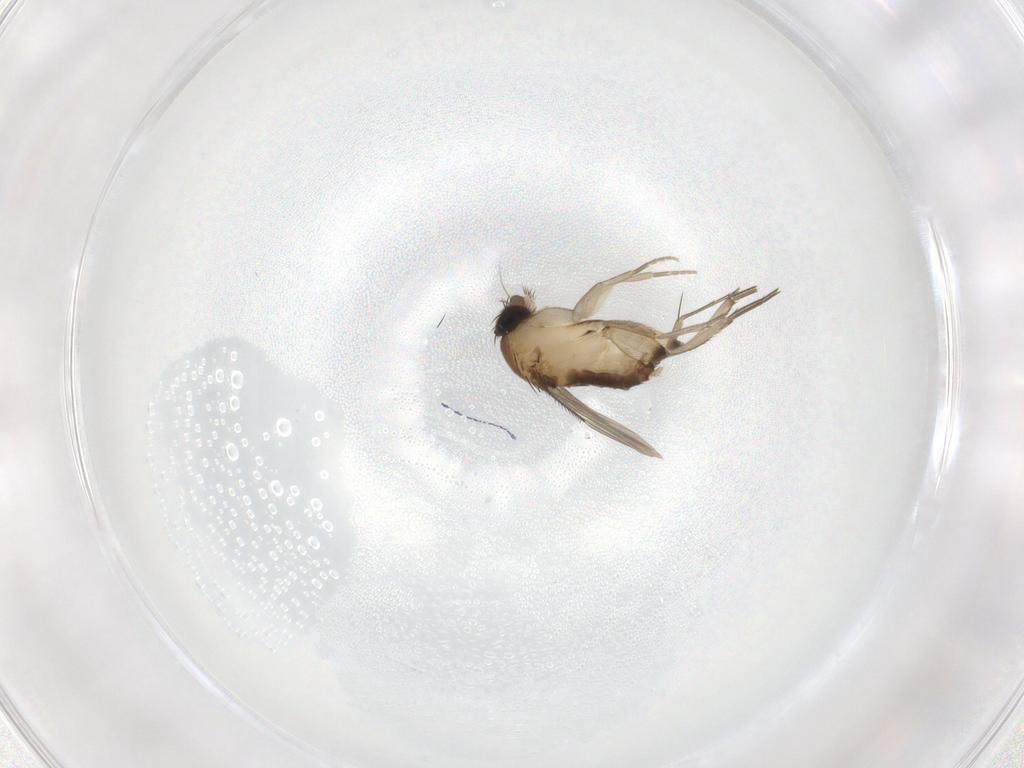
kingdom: Animalia
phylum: Arthropoda
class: Insecta
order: Diptera
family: Phoridae
